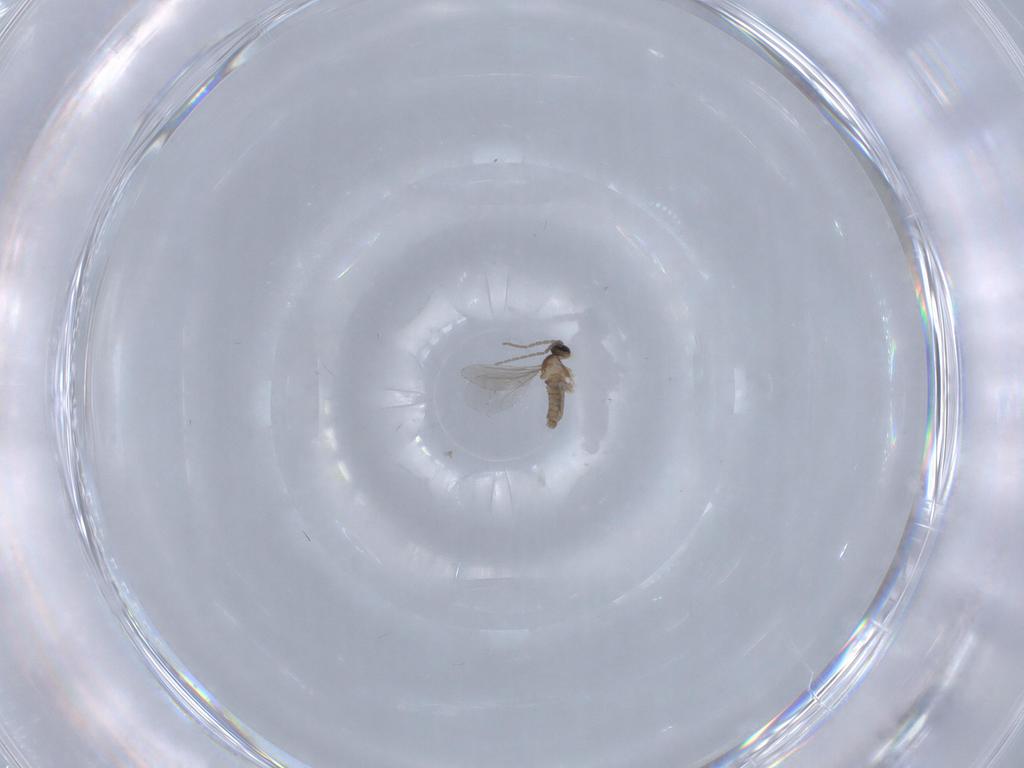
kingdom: Animalia
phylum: Arthropoda
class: Insecta
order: Diptera
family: Cecidomyiidae
